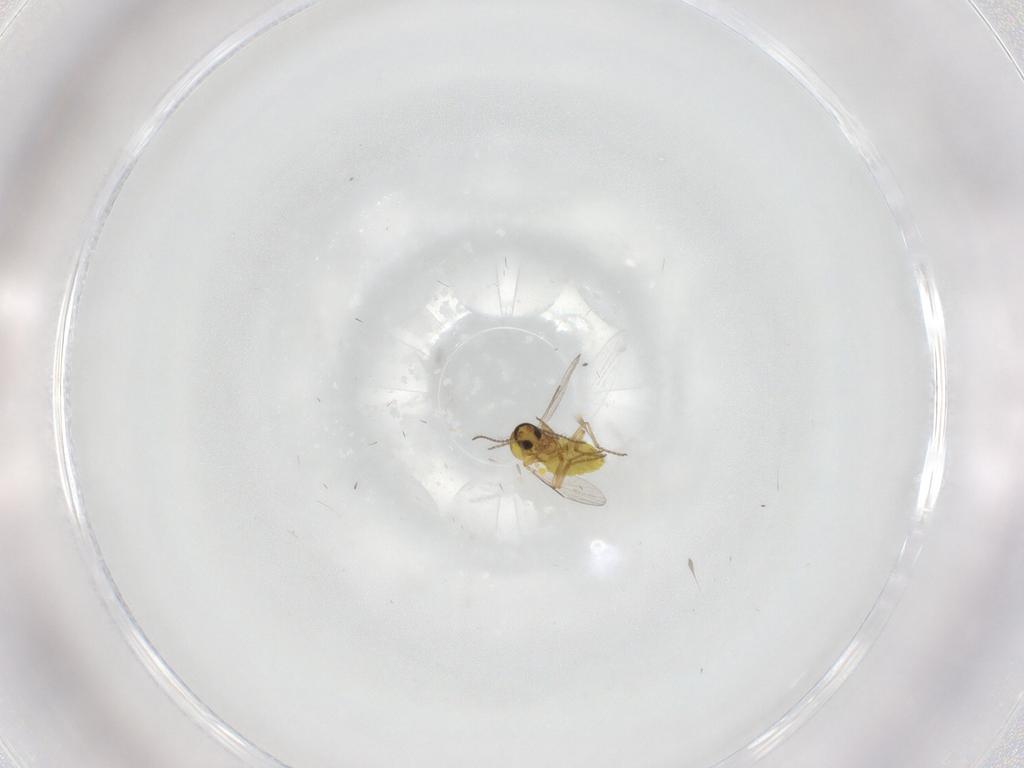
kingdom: Animalia
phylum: Arthropoda
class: Insecta
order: Diptera
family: Ceratopogonidae
